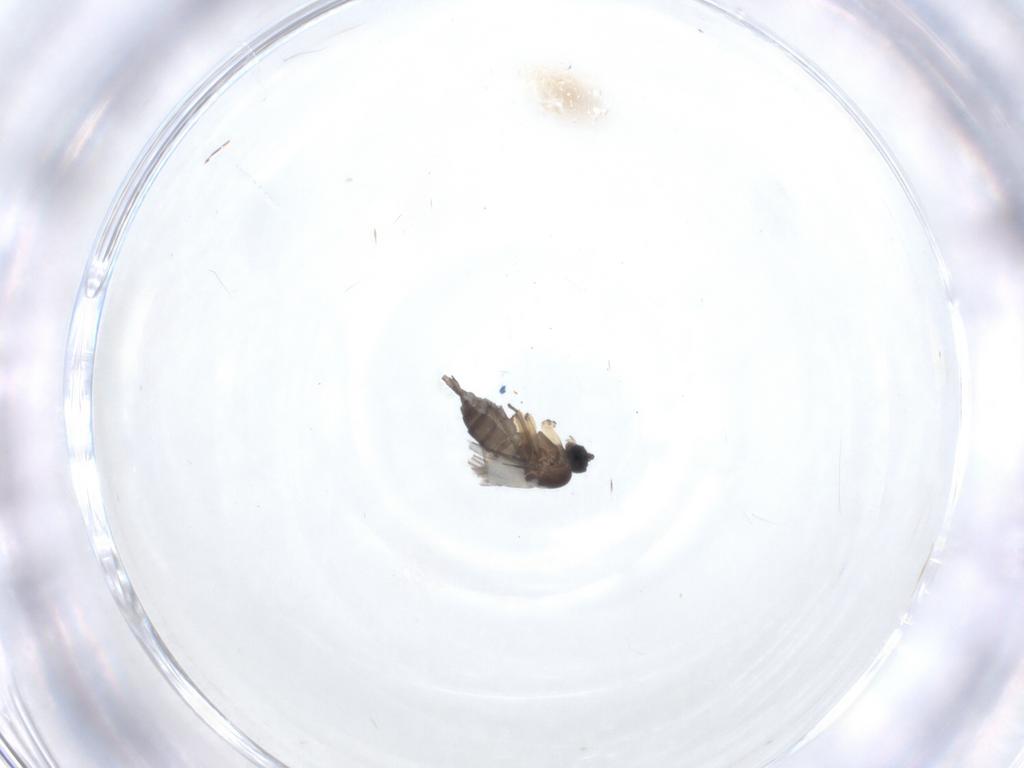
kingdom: Animalia
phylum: Arthropoda
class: Insecta
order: Diptera
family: Sciaridae
